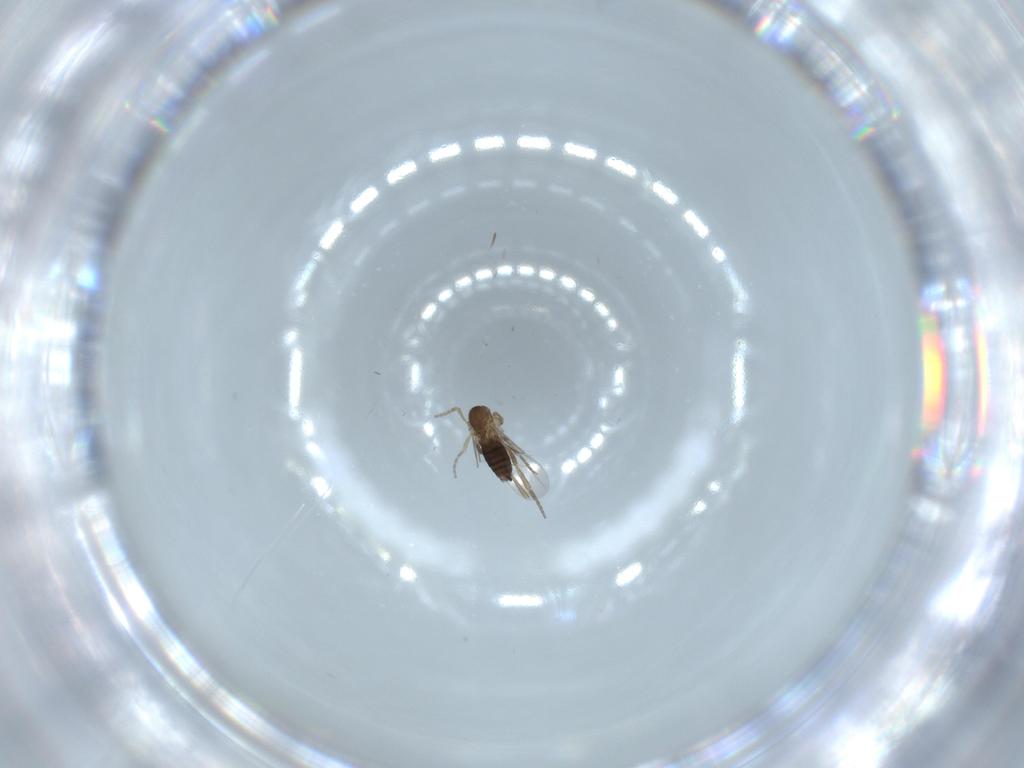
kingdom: Animalia
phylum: Arthropoda
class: Insecta
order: Diptera
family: Phoridae
